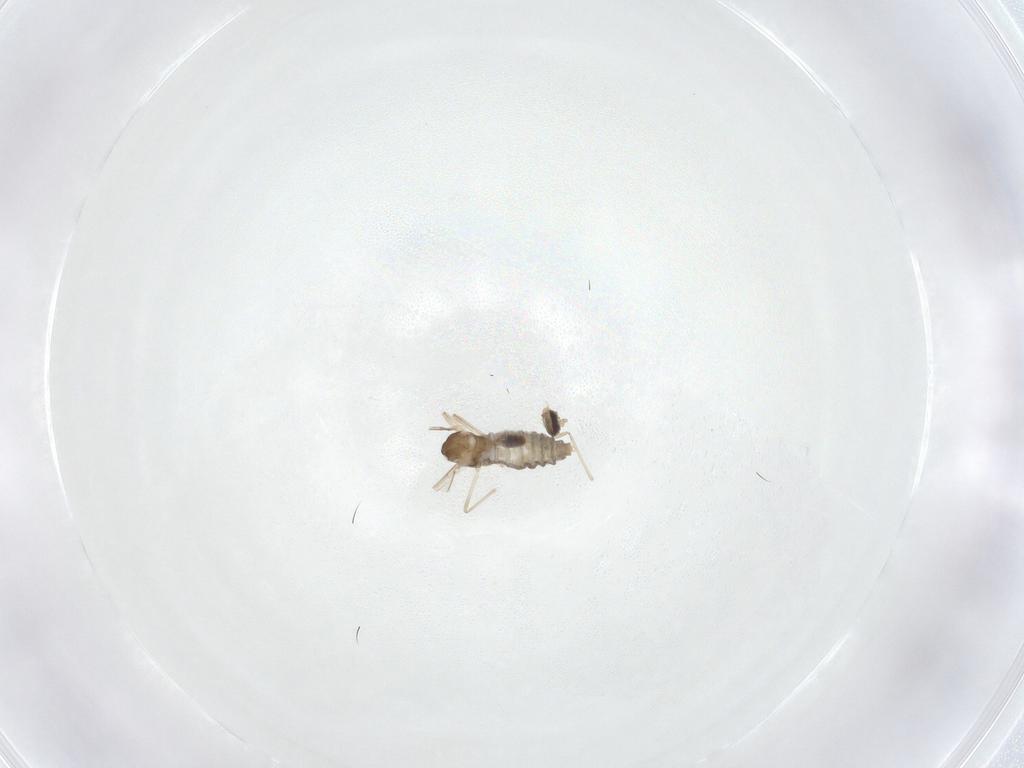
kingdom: Animalia
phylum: Arthropoda
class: Insecta
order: Diptera
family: Cecidomyiidae
